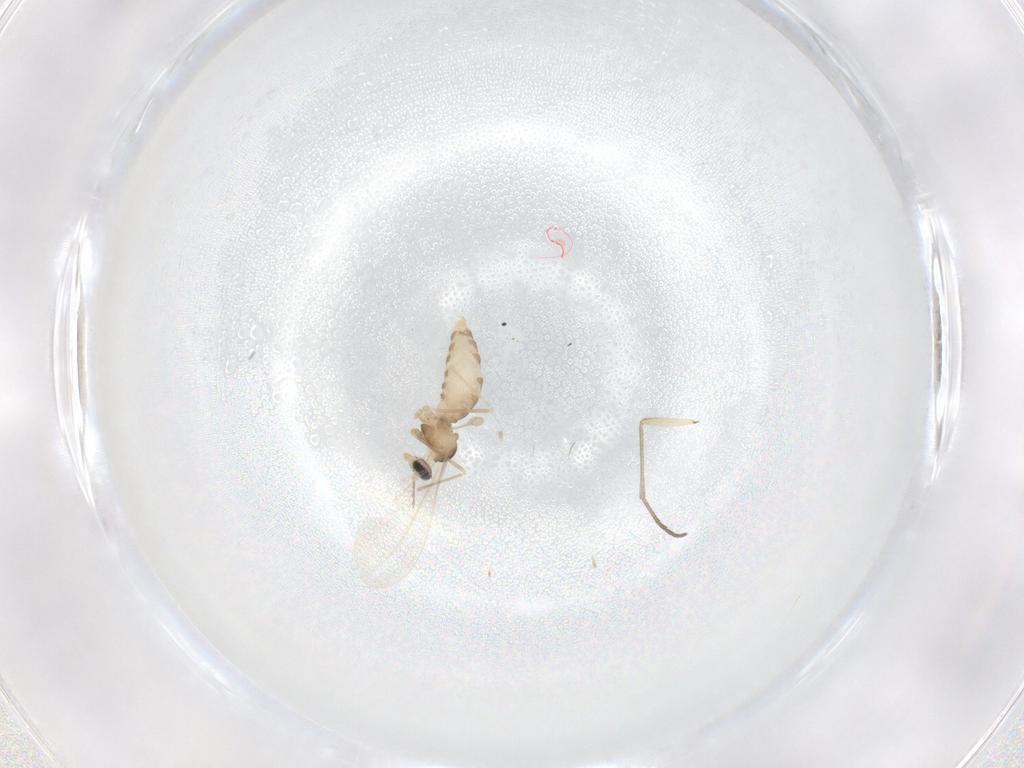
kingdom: Animalia
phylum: Arthropoda
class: Insecta
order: Diptera
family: Cecidomyiidae
